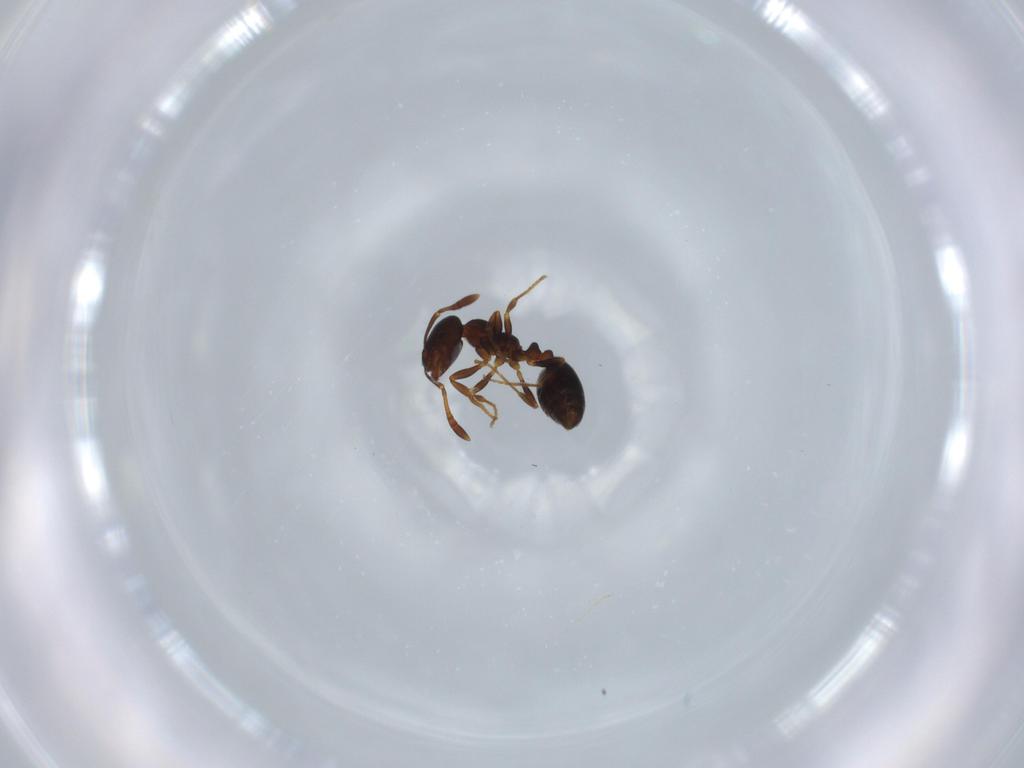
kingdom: Animalia
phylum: Arthropoda
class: Insecta
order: Hymenoptera
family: Formicidae
